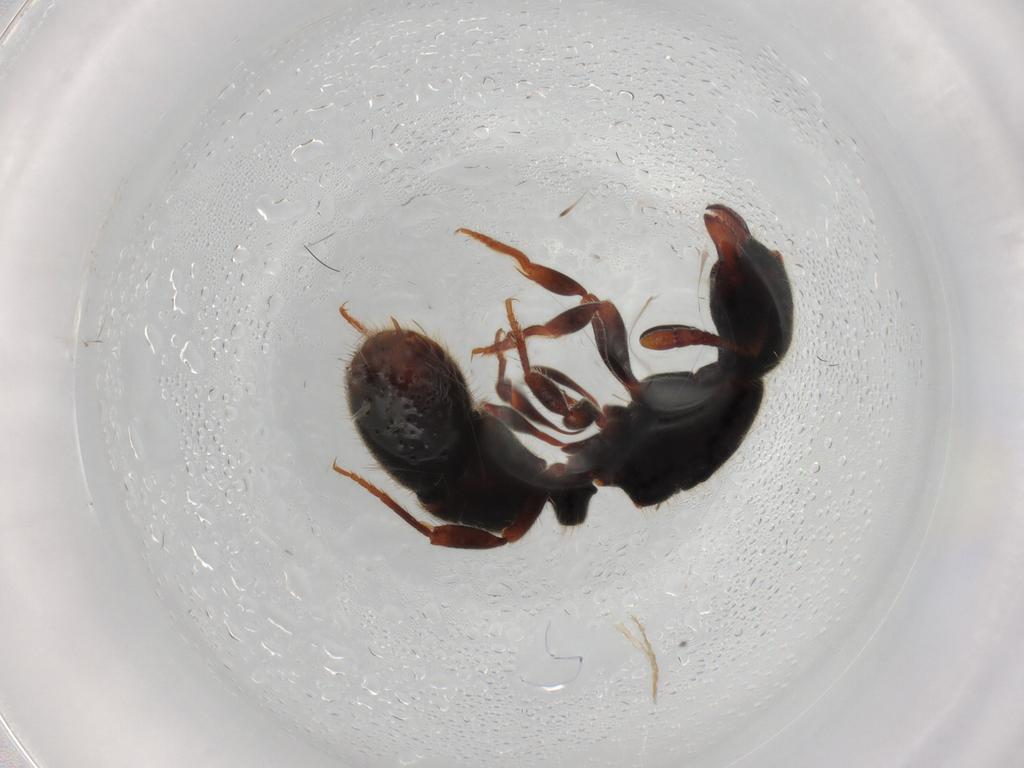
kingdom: Animalia
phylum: Arthropoda
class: Insecta
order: Hymenoptera
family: Formicidae
